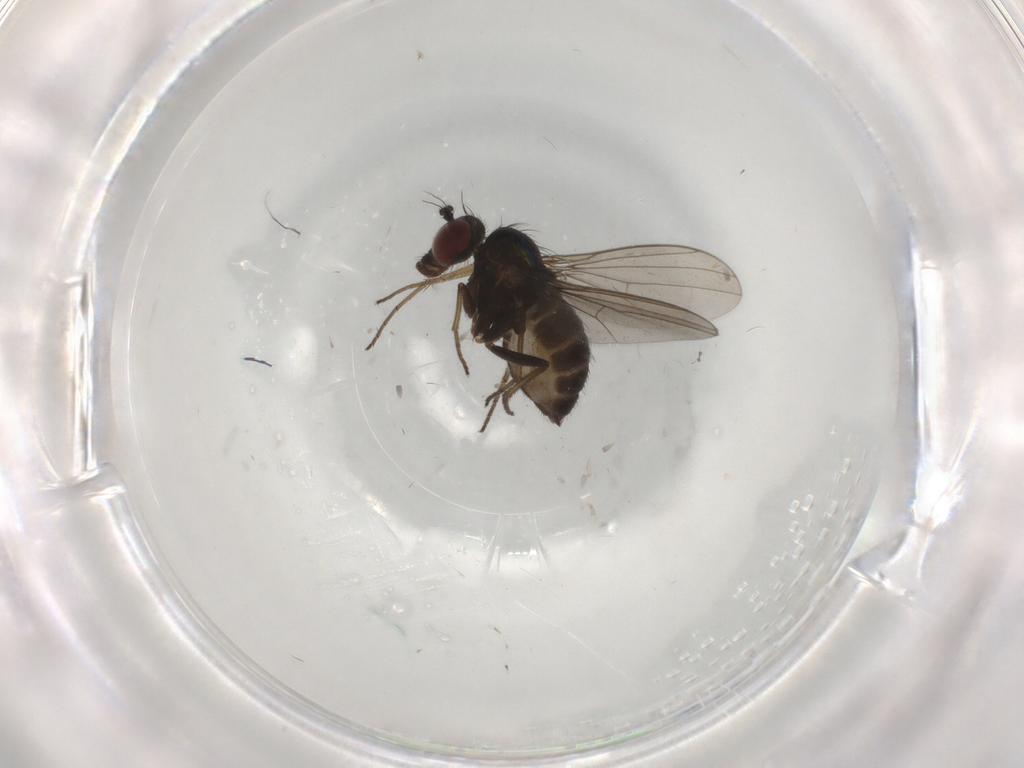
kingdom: Animalia
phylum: Arthropoda
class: Insecta
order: Diptera
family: Dolichopodidae
